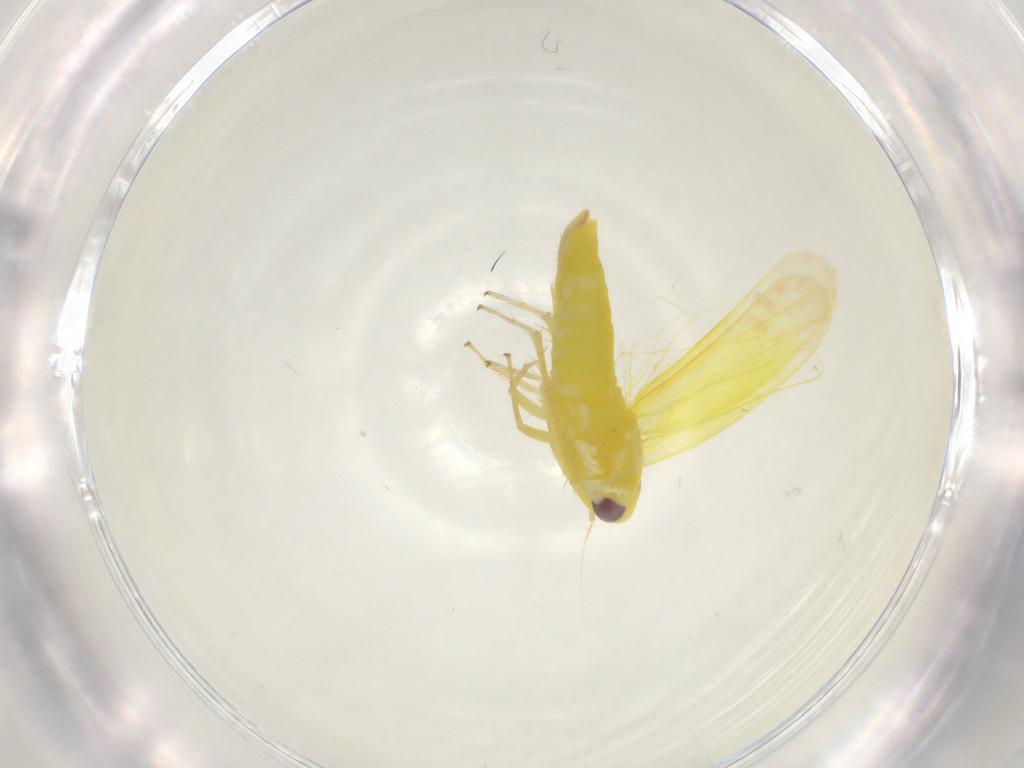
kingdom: Animalia
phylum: Arthropoda
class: Insecta
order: Hemiptera
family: Cicadellidae
